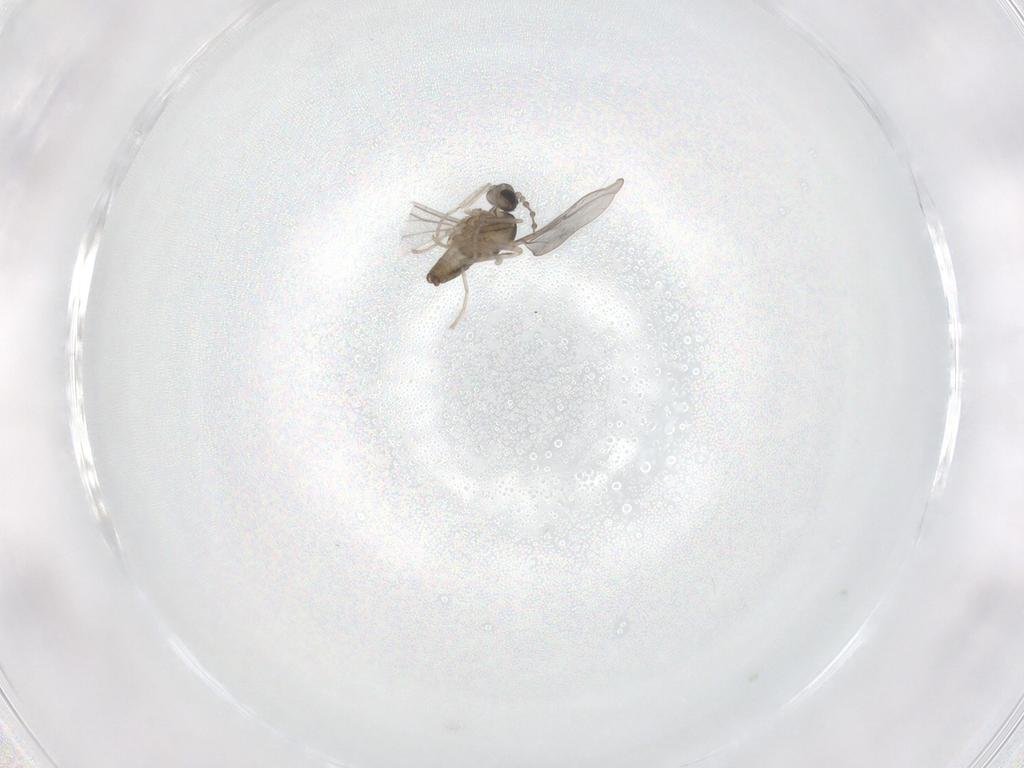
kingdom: Animalia
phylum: Arthropoda
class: Insecta
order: Diptera
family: Cecidomyiidae
